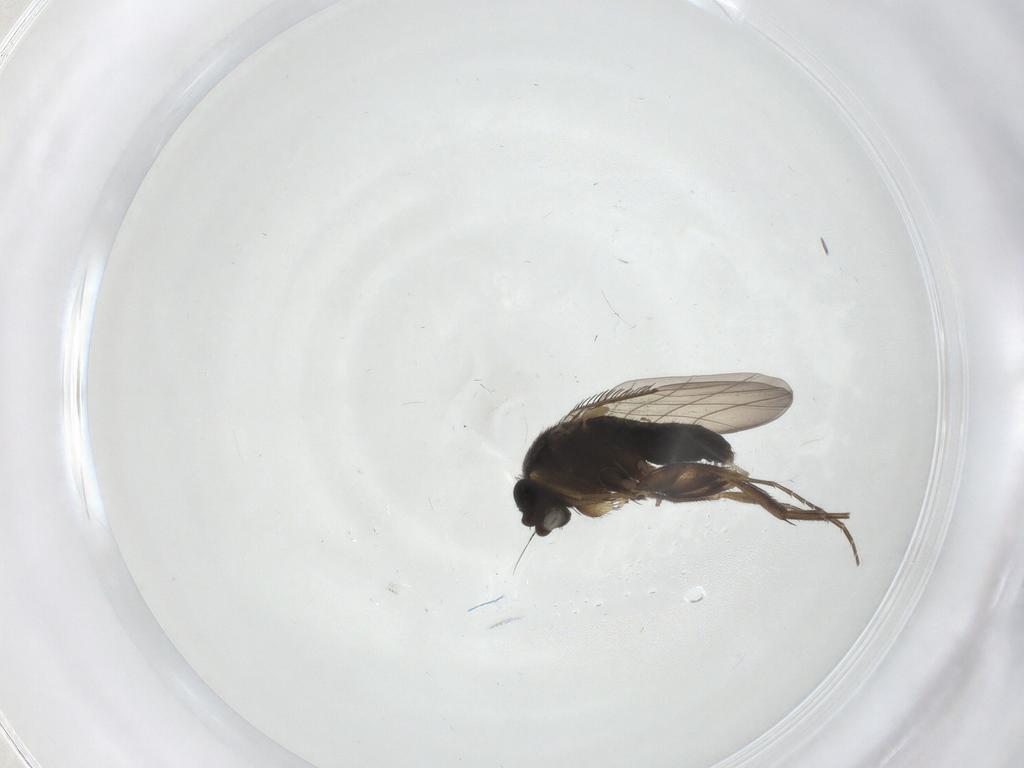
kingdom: Animalia
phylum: Arthropoda
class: Insecta
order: Diptera
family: Phoridae
